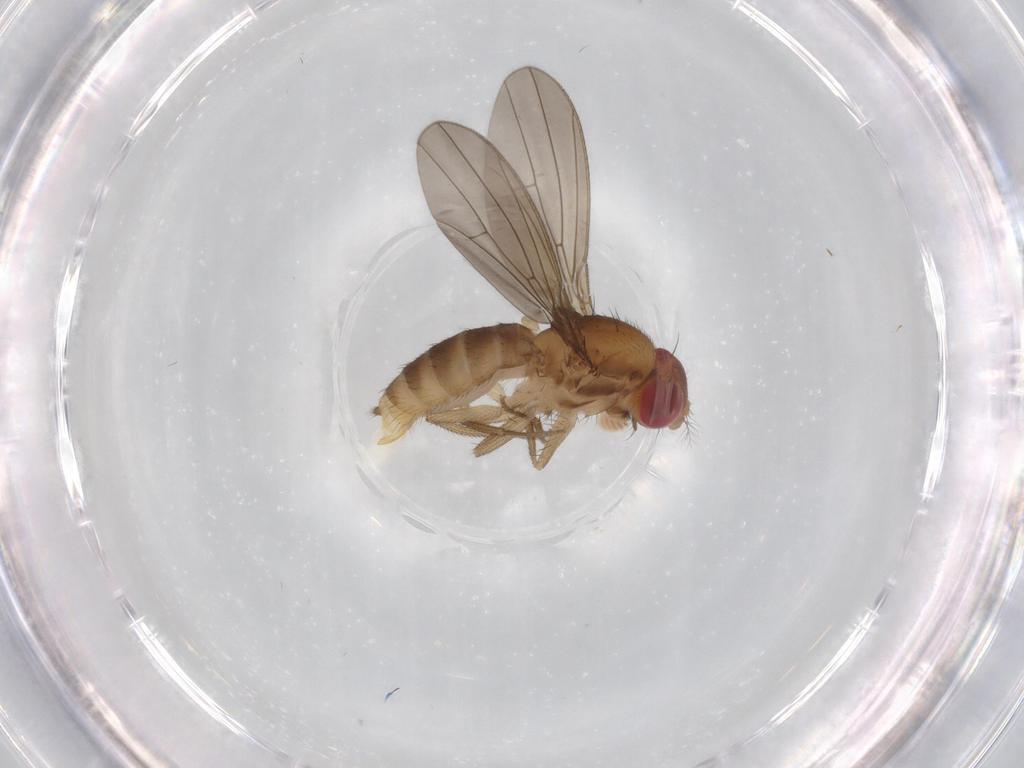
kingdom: Animalia
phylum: Arthropoda
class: Insecta
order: Diptera
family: Drosophilidae
